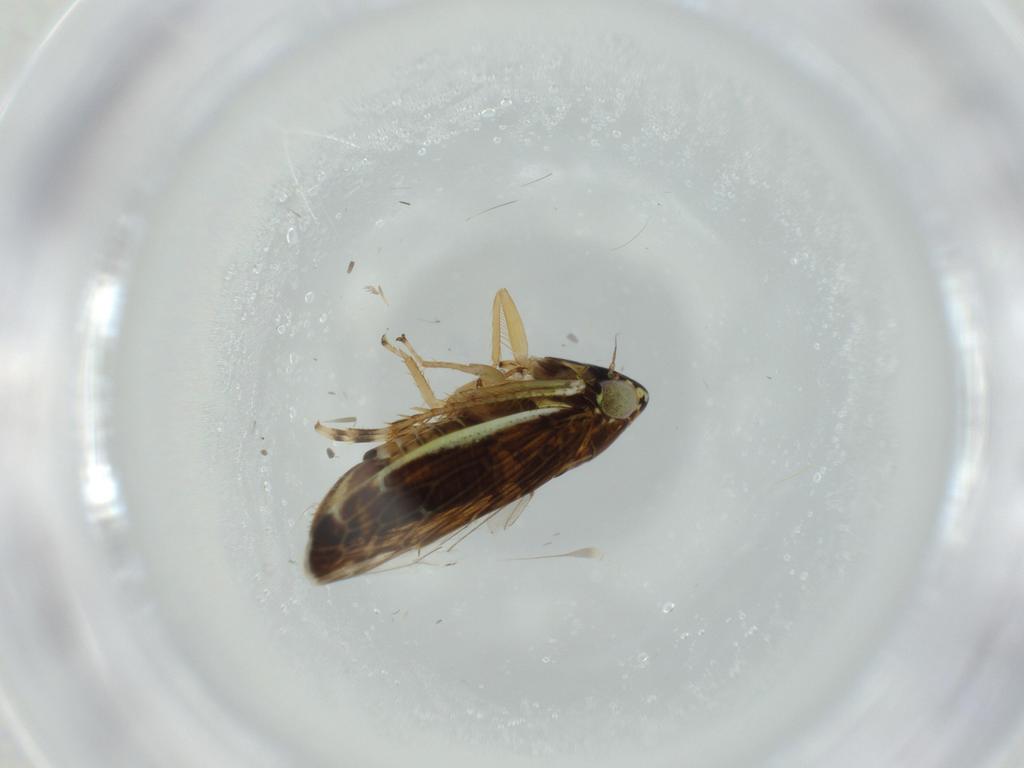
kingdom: Animalia
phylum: Arthropoda
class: Insecta
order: Hemiptera
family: Cicadellidae
